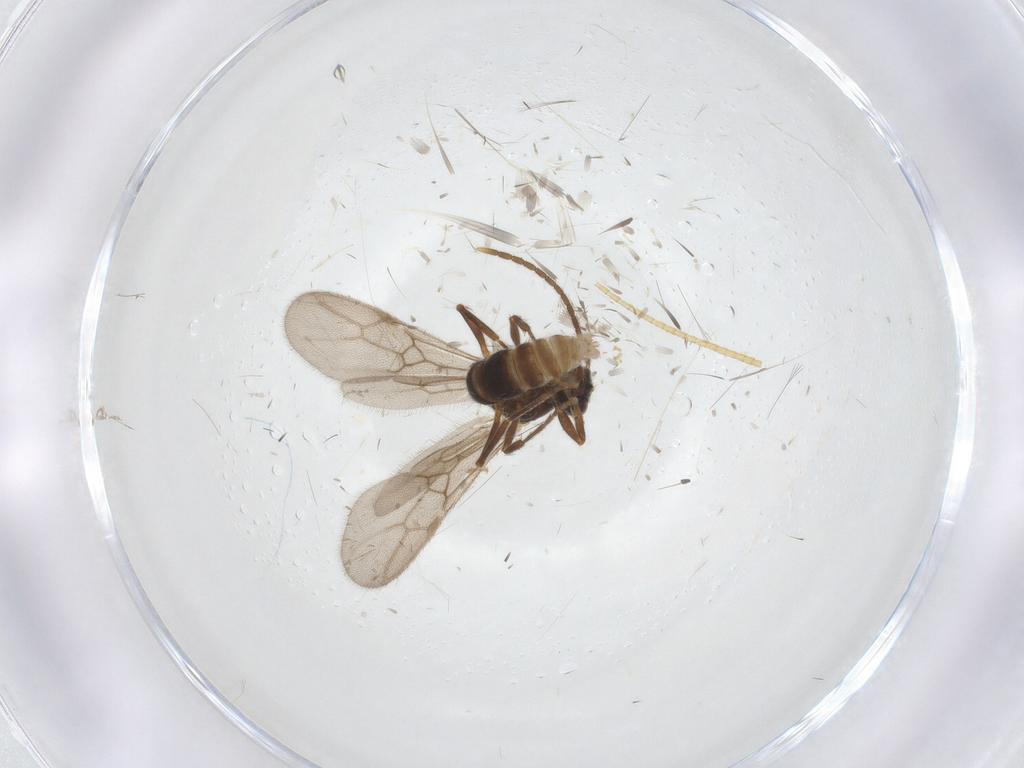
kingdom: Animalia
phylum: Arthropoda
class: Insecta
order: Hymenoptera
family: Formicidae
